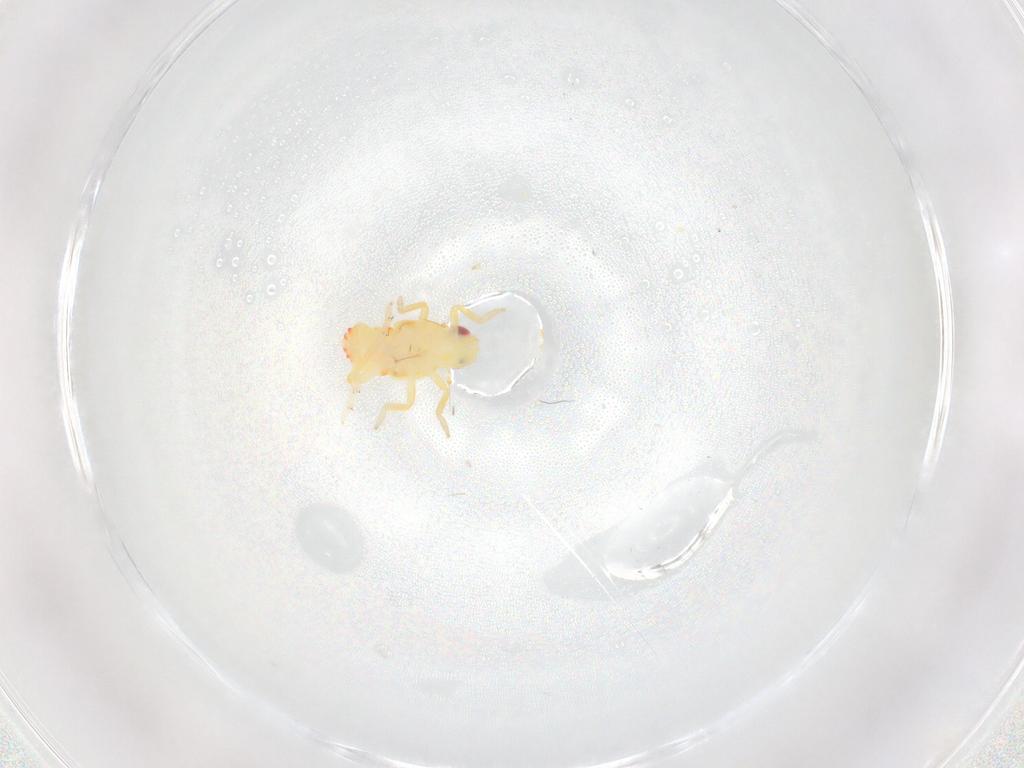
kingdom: Animalia
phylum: Arthropoda
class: Insecta
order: Hemiptera
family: Tropiduchidae
